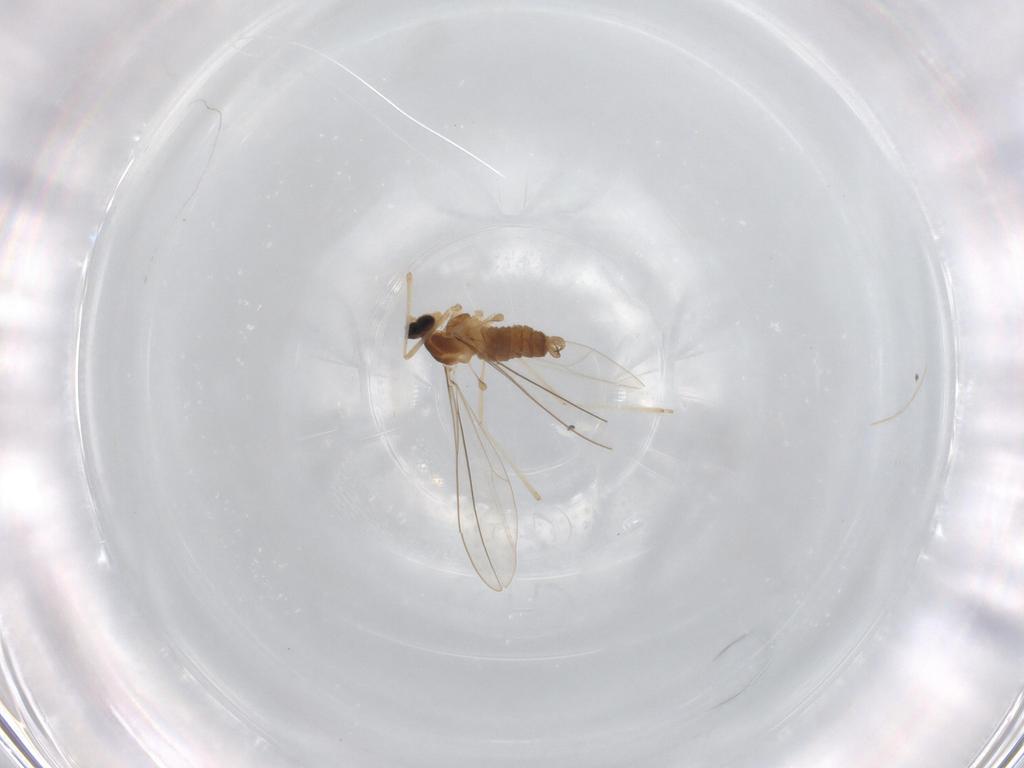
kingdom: Animalia
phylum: Arthropoda
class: Insecta
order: Diptera
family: Cecidomyiidae
